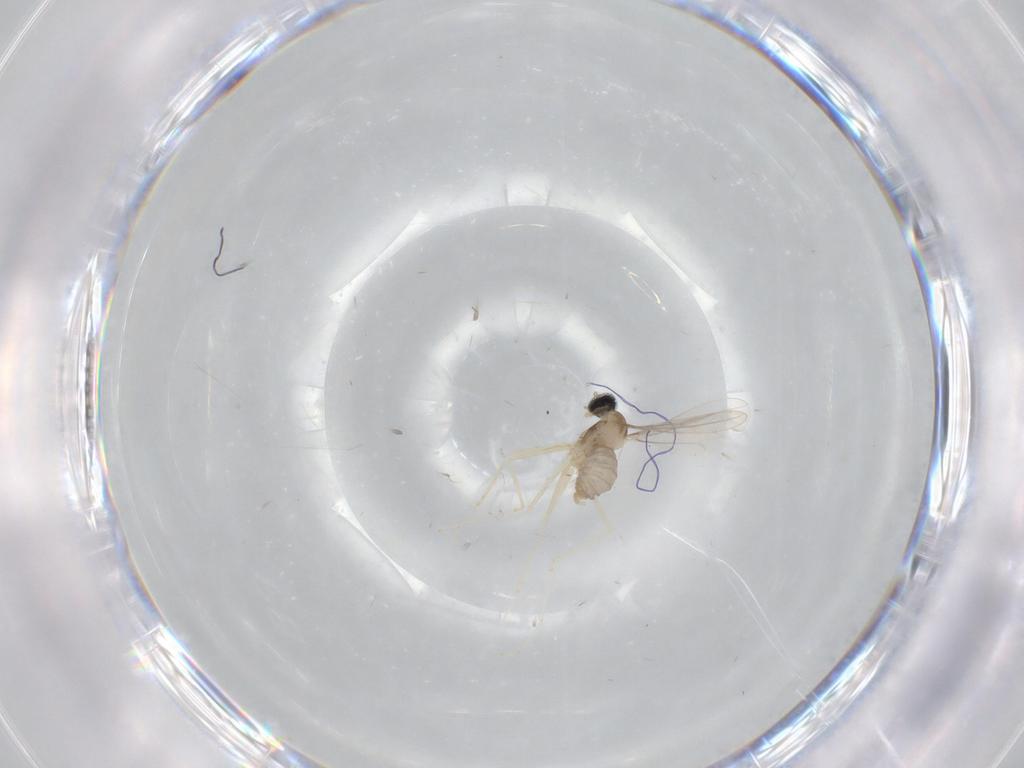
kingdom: Animalia
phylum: Arthropoda
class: Insecta
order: Diptera
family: Cecidomyiidae
